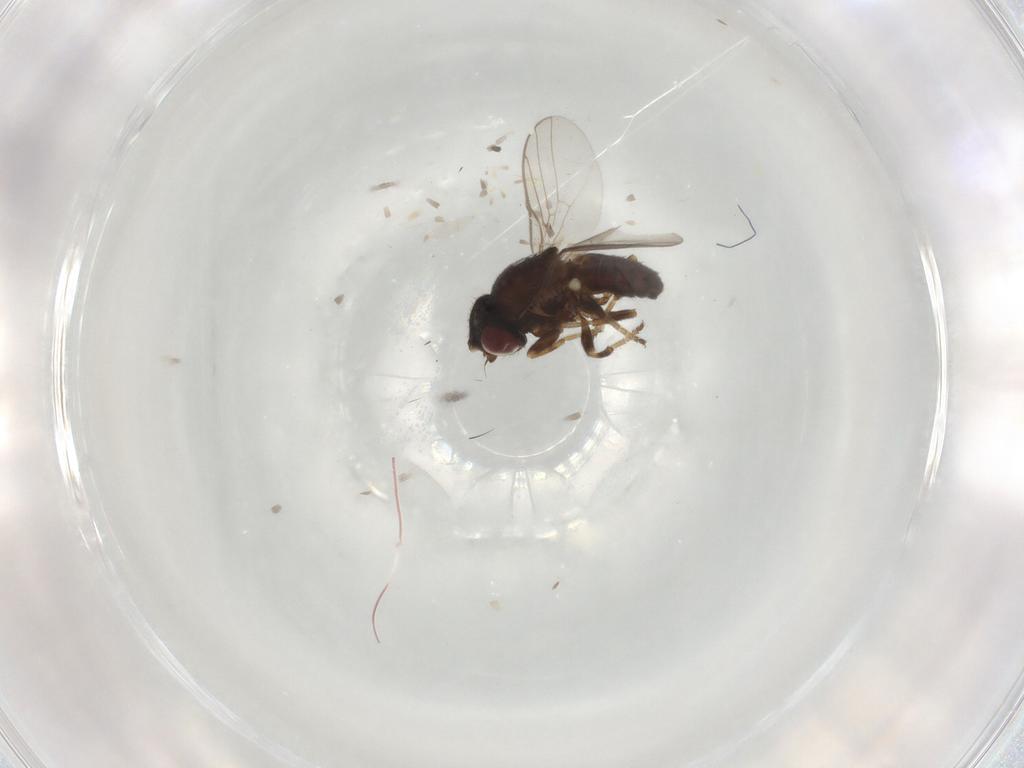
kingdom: Animalia
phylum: Arthropoda
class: Insecta
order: Diptera
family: Chloropidae
